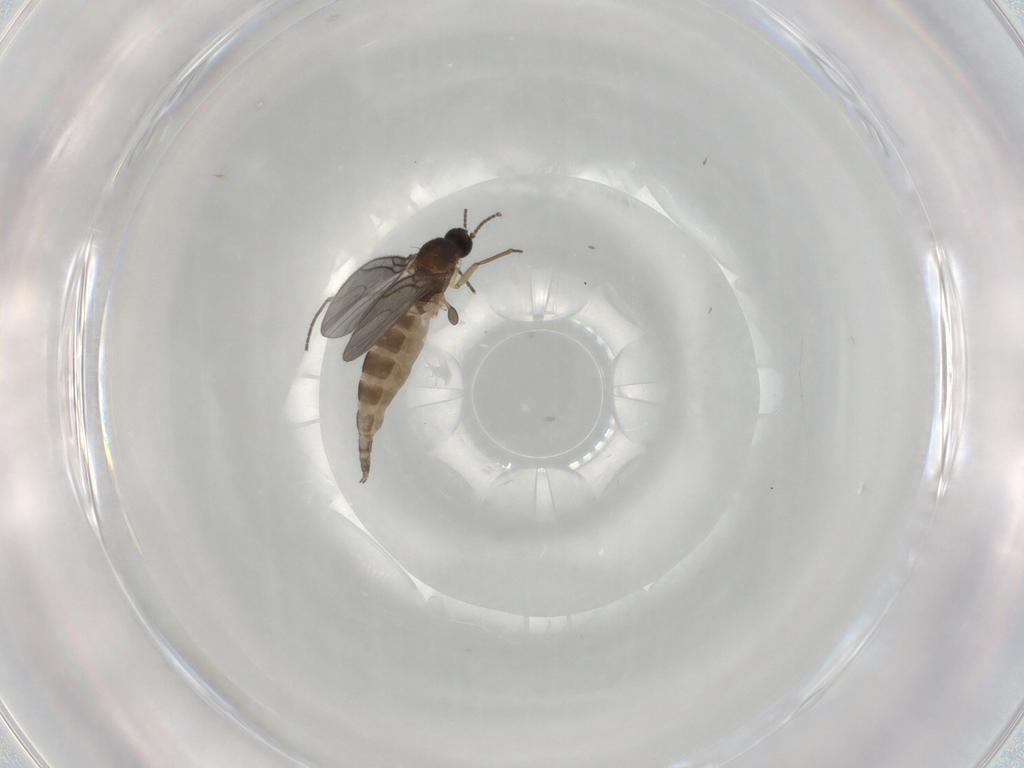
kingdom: Animalia
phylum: Arthropoda
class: Insecta
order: Diptera
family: Sciaridae
